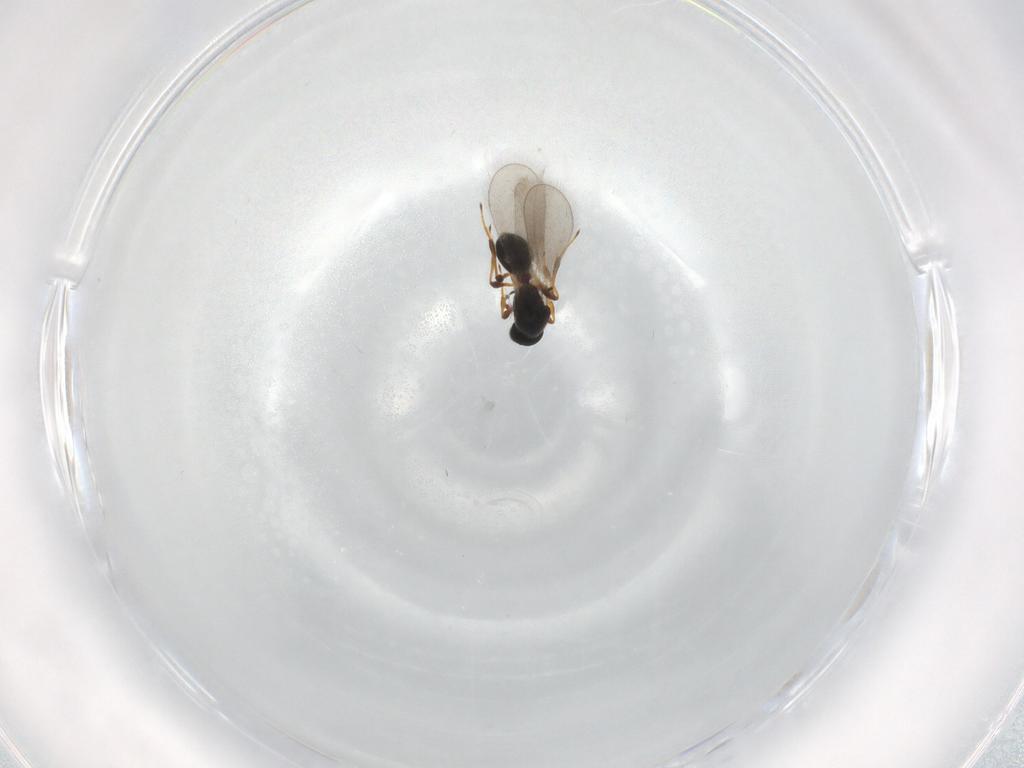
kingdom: Animalia
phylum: Arthropoda
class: Insecta
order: Hymenoptera
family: Platygastridae
